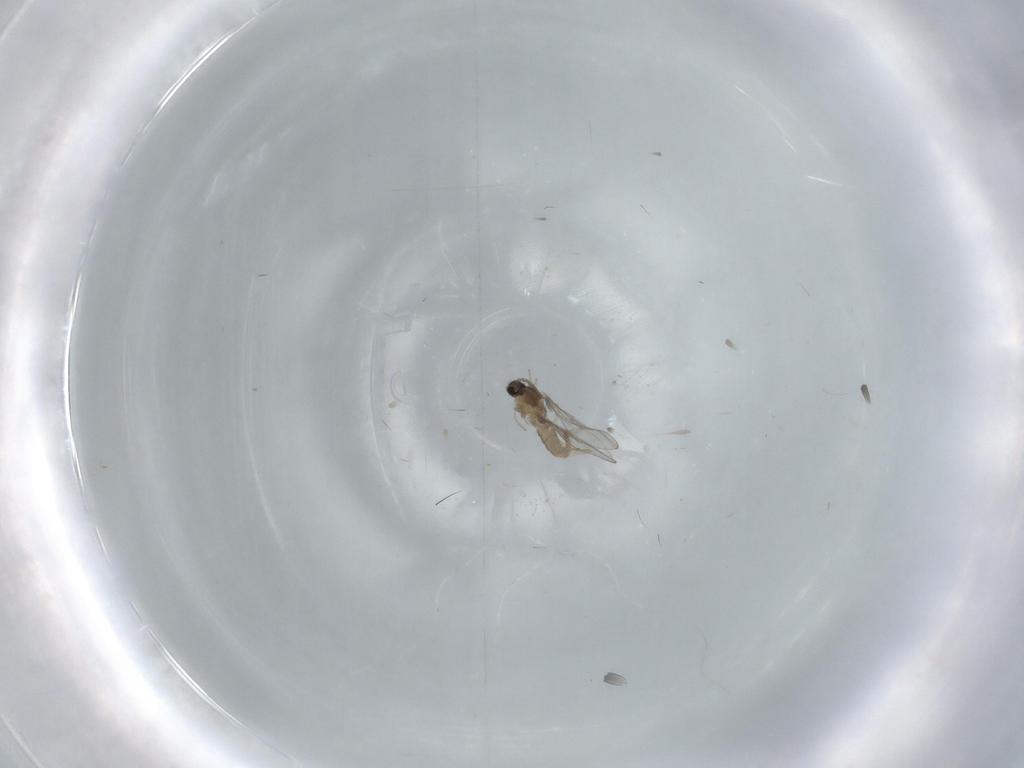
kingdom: Animalia
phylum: Arthropoda
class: Insecta
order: Diptera
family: Cecidomyiidae
